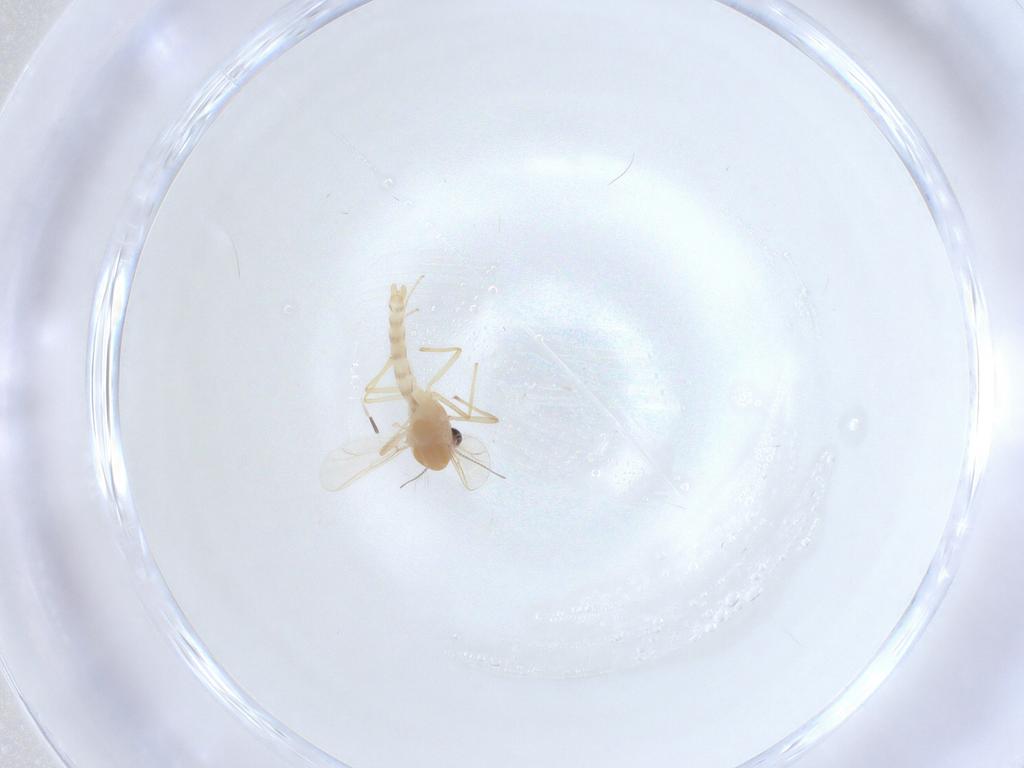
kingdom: Animalia
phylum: Arthropoda
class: Insecta
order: Diptera
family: Chironomidae
